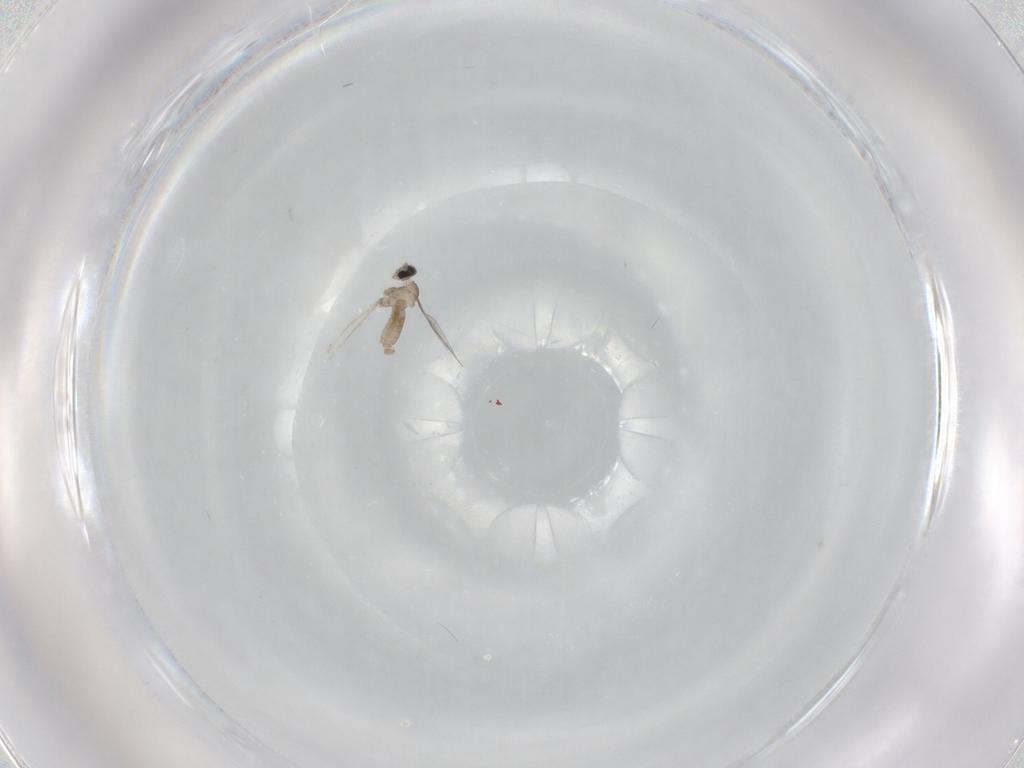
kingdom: Animalia
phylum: Arthropoda
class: Insecta
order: Diptera
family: Cecidomyiidae
